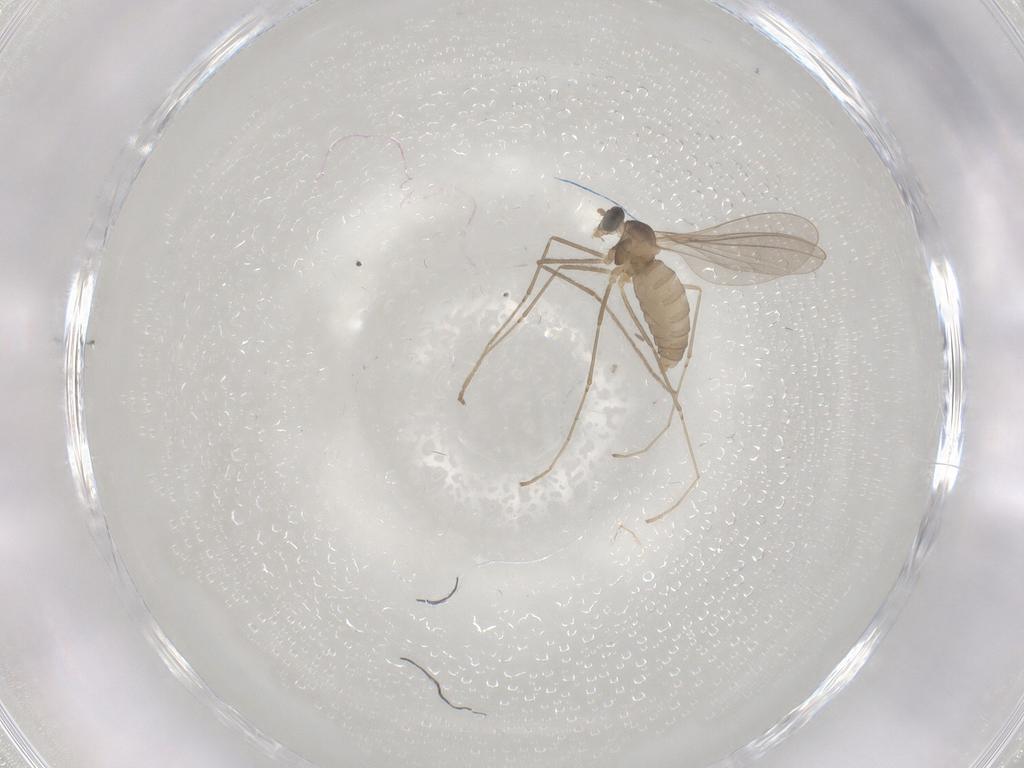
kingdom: Animalia
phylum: Arthropoda
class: Insecta
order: Diptera
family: Cecidomyiidae
